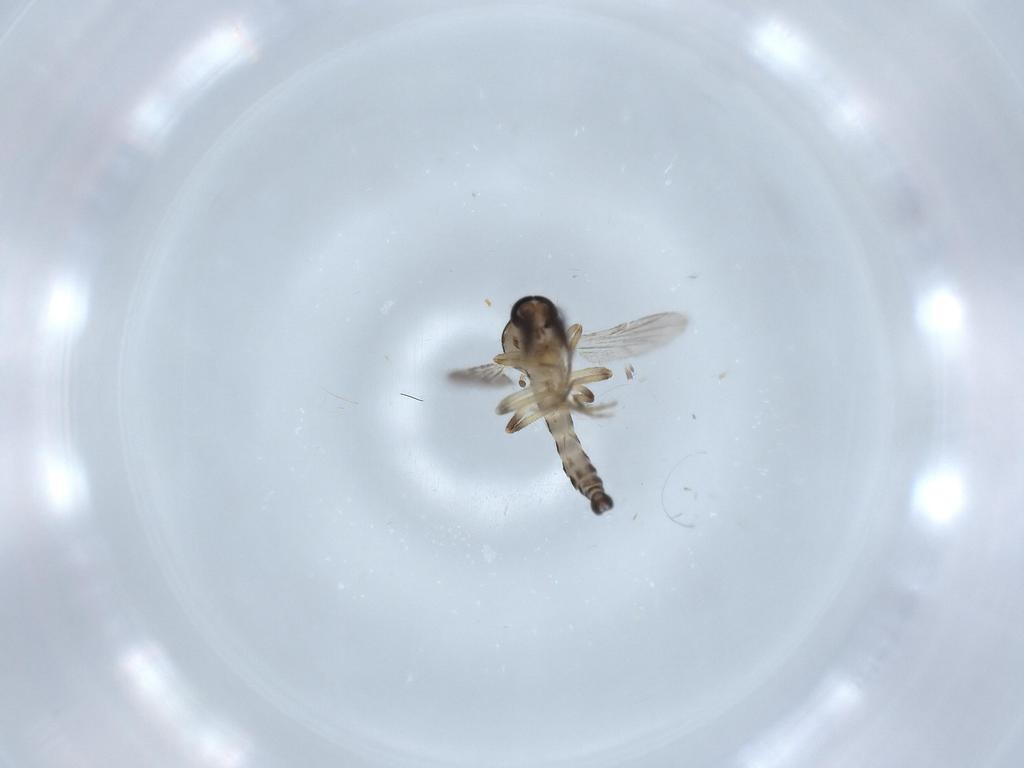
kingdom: Animalia
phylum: Arthropoda
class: Insecta
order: Diptera
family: Ceratopogonidae
